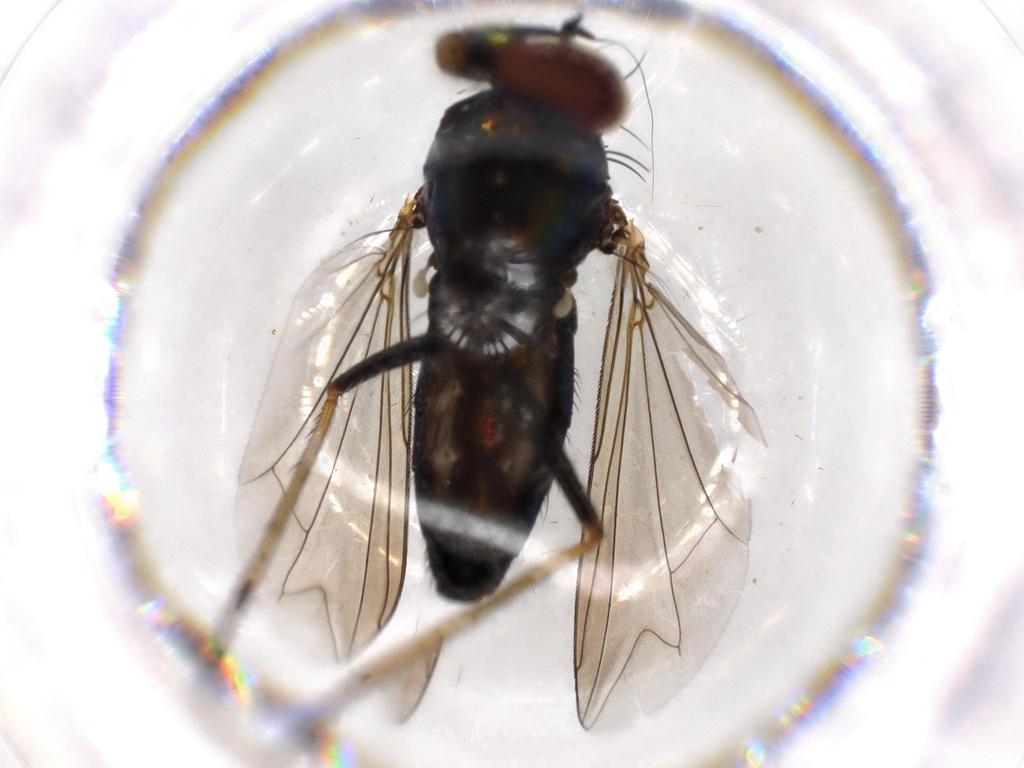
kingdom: Animalia
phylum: Arthropoda
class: Insecta
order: Diptera
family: Dolichopodidae
